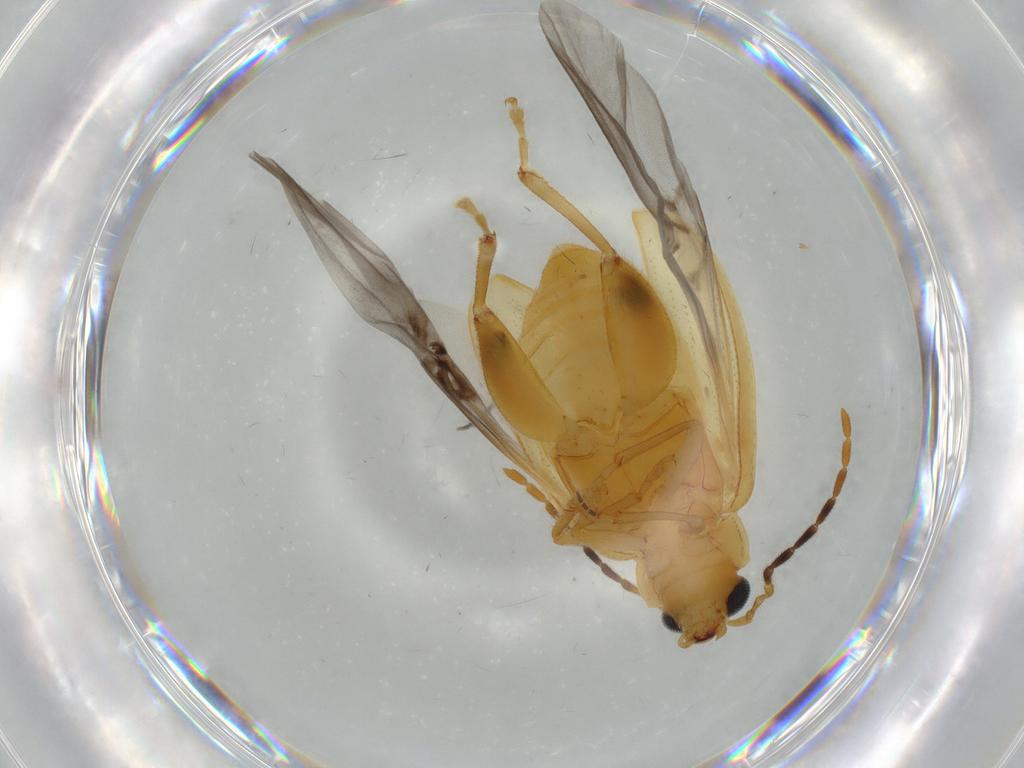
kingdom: Animalia
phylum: Arthropoda
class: Insecta
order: Coleoptera
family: Chrysomelidae
